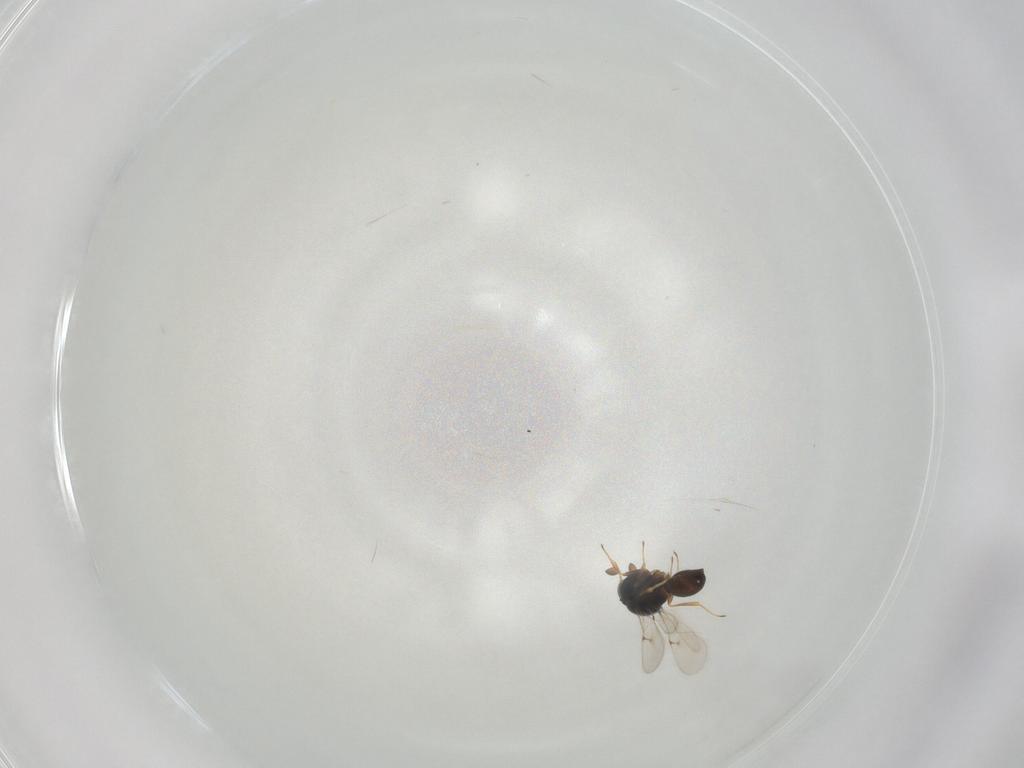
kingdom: Animalia
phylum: Arthropoda
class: Insecta
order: Hymenoptera
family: Scelionidae
